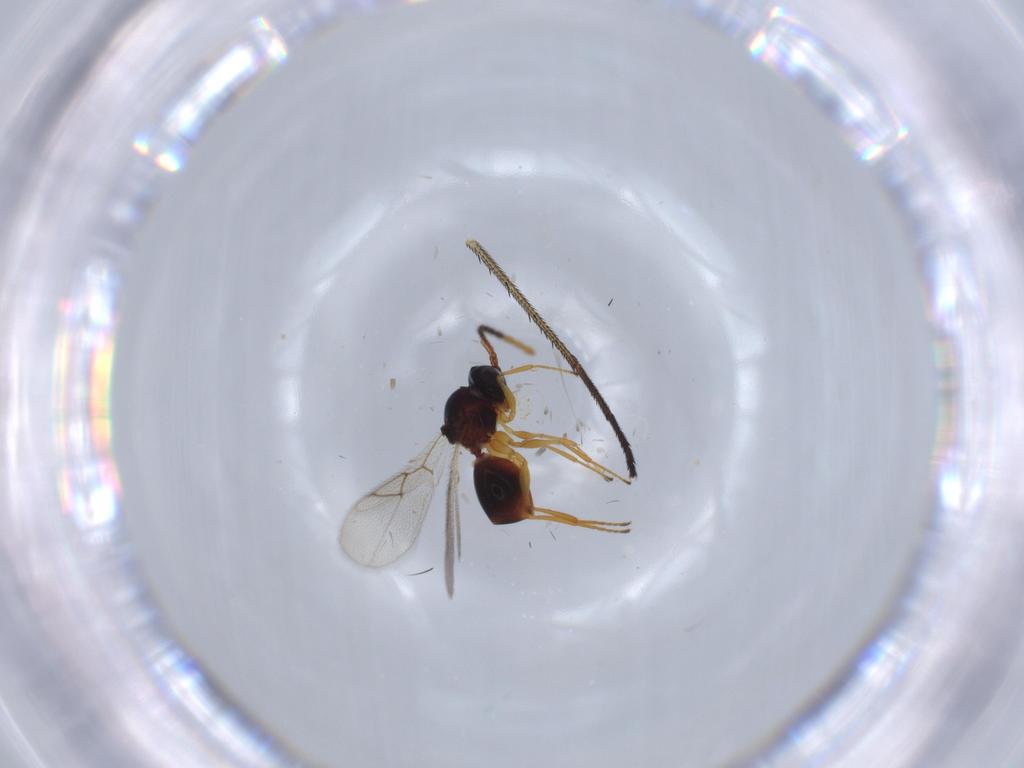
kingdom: Animalia
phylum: Arthropoda
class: Insecta
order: Hymenoptera
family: Figitidae
